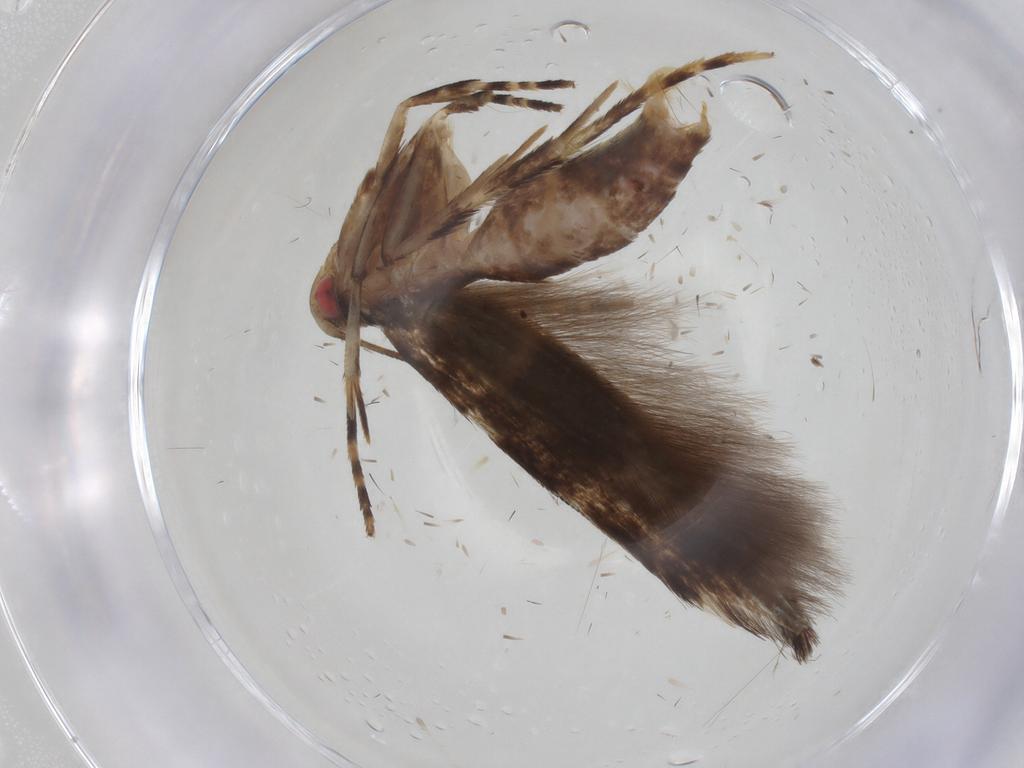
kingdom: Animalia
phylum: Arthropoda
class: Insecta
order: Lepidoptera
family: Cosmopterigidae
